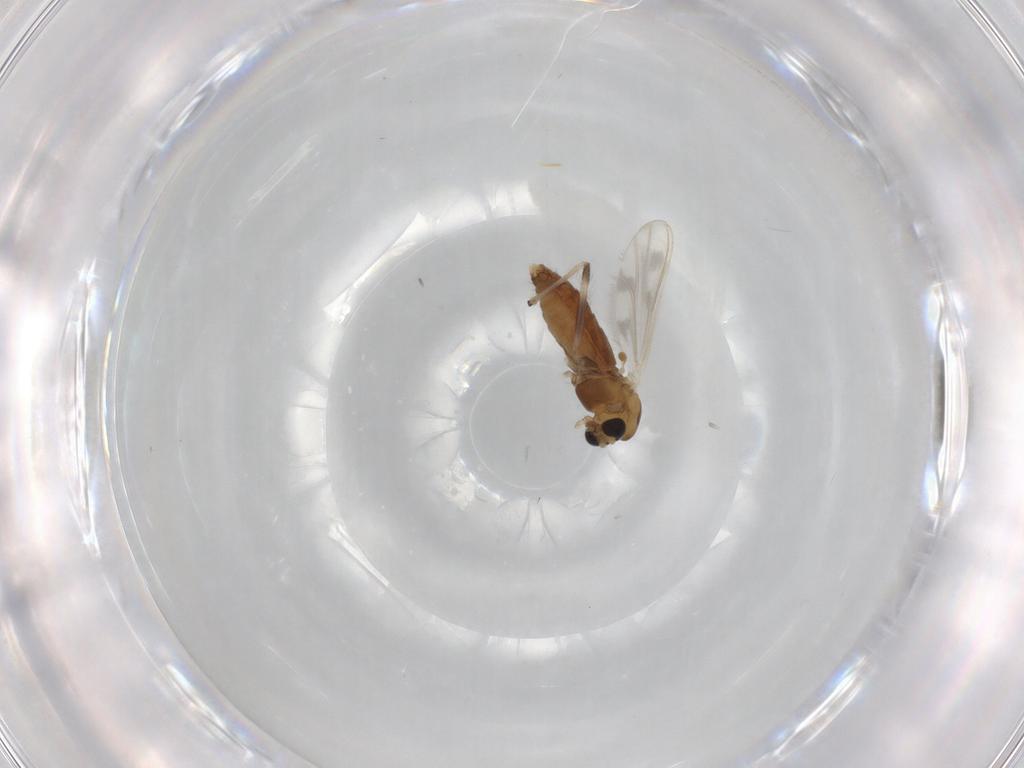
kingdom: Animalia
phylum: Arthropoda
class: Insecta
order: Diptera
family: Chironomidae
